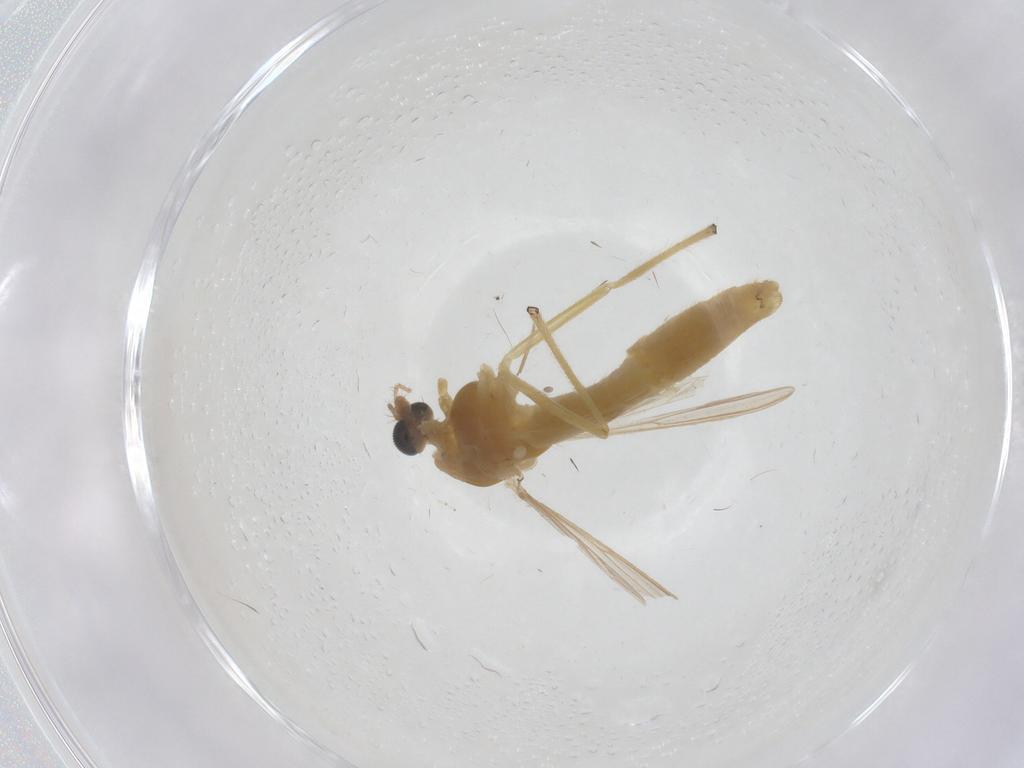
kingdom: Animalia
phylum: Arthropoda
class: Insecta
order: Diptera
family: Chironomidae
